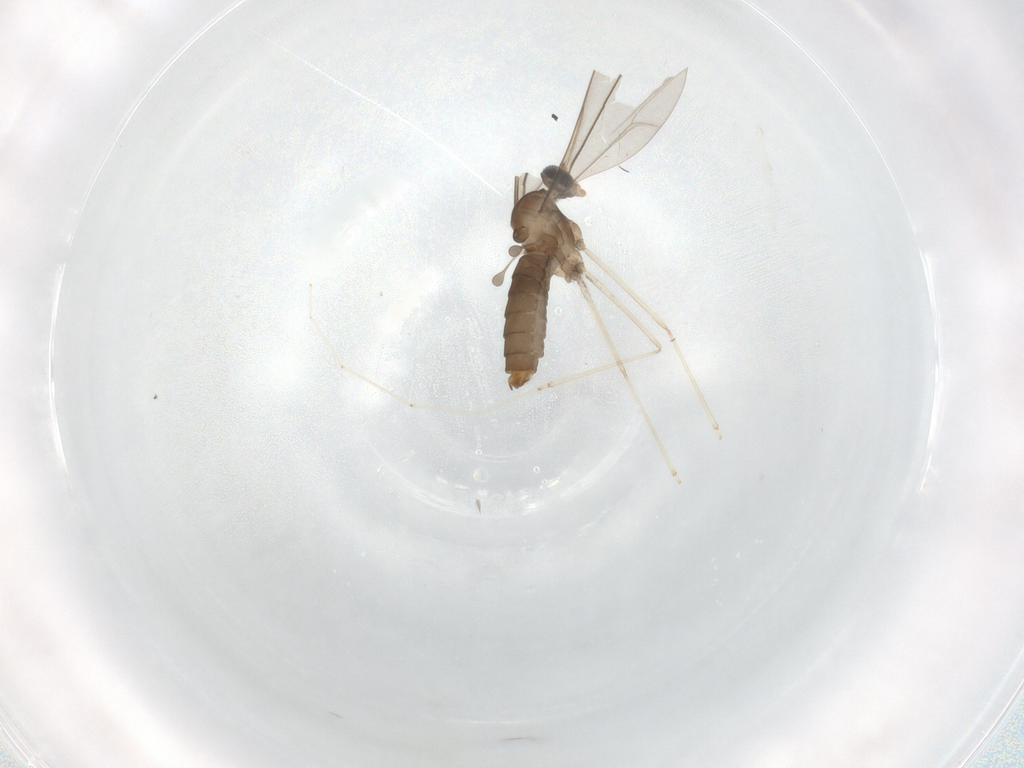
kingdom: Animalia
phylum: Arthropoda
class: Insecta
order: Diptera
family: Cecidomyiidae
